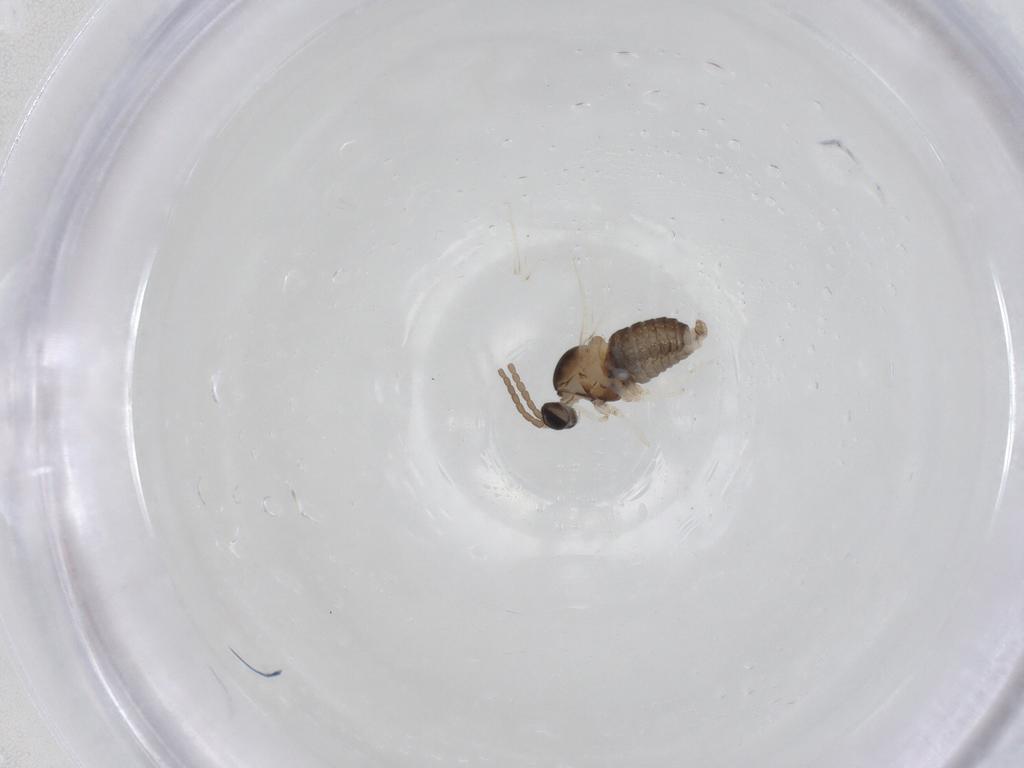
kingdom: Animalia
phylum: Arthropoda
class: Insecta
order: Diptera
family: Cecidomyiidae
